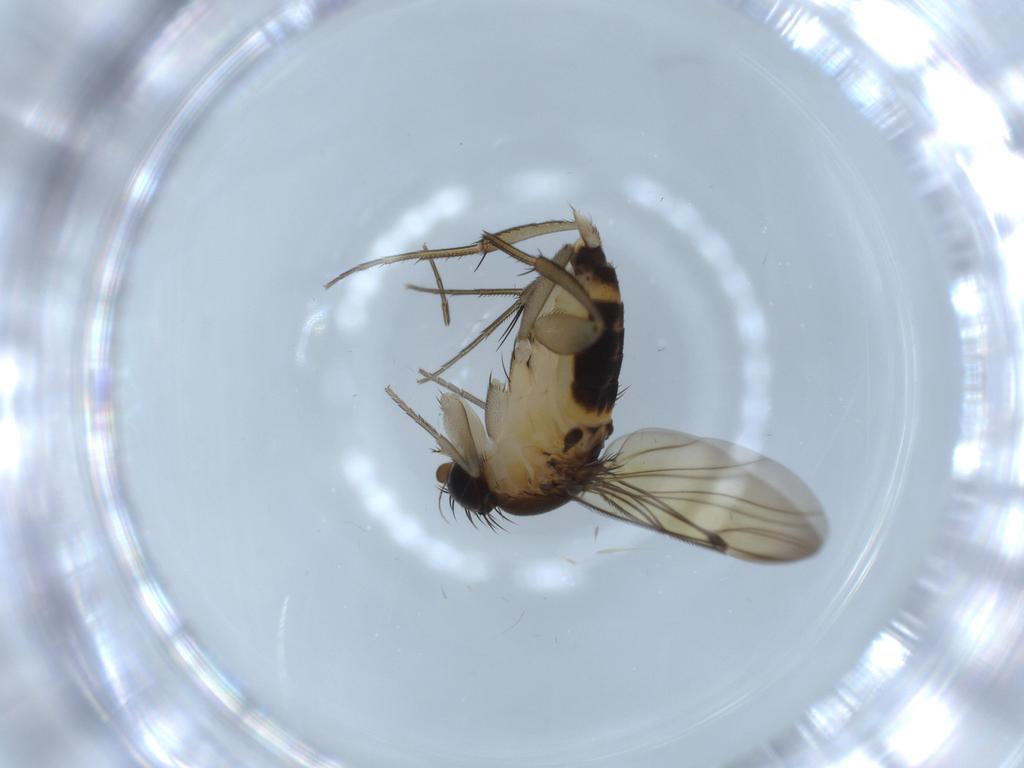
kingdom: Animalia
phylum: Arthropoda
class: Insecta
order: Diptera
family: Phoridae
